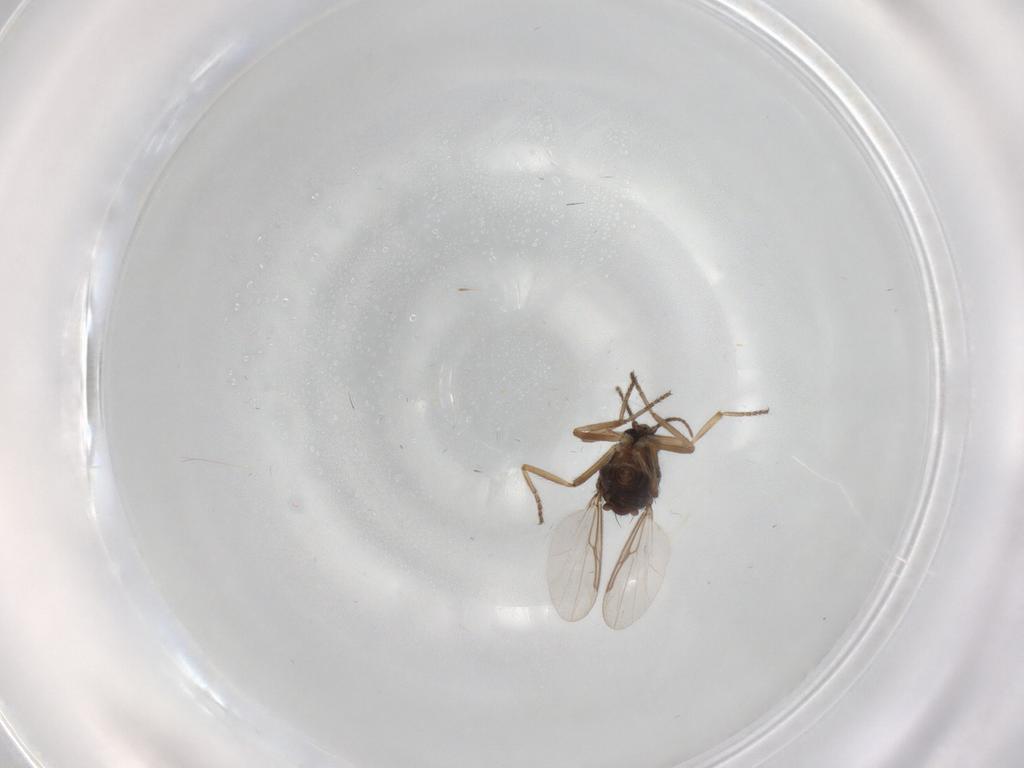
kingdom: Animalia
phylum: Arthropoda
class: Insecta
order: Diptera
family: Ceratopogonidae
